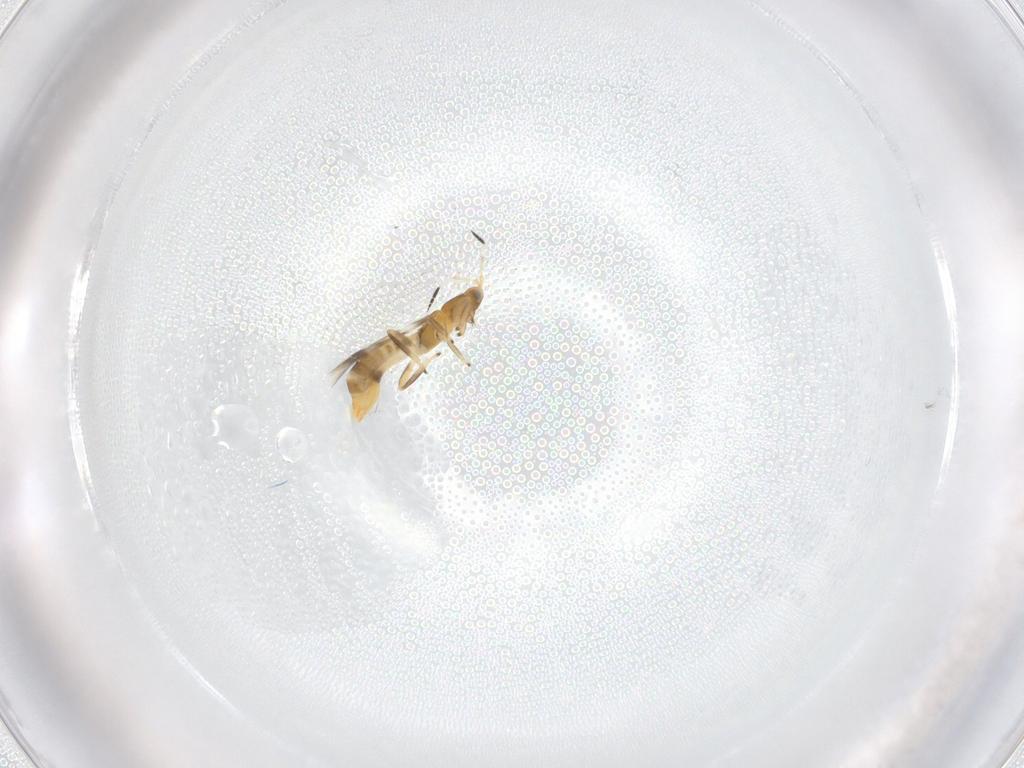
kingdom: Animalia
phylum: Arthropoda
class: Insecta
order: Thysanoptera
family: Aeolothripidae
